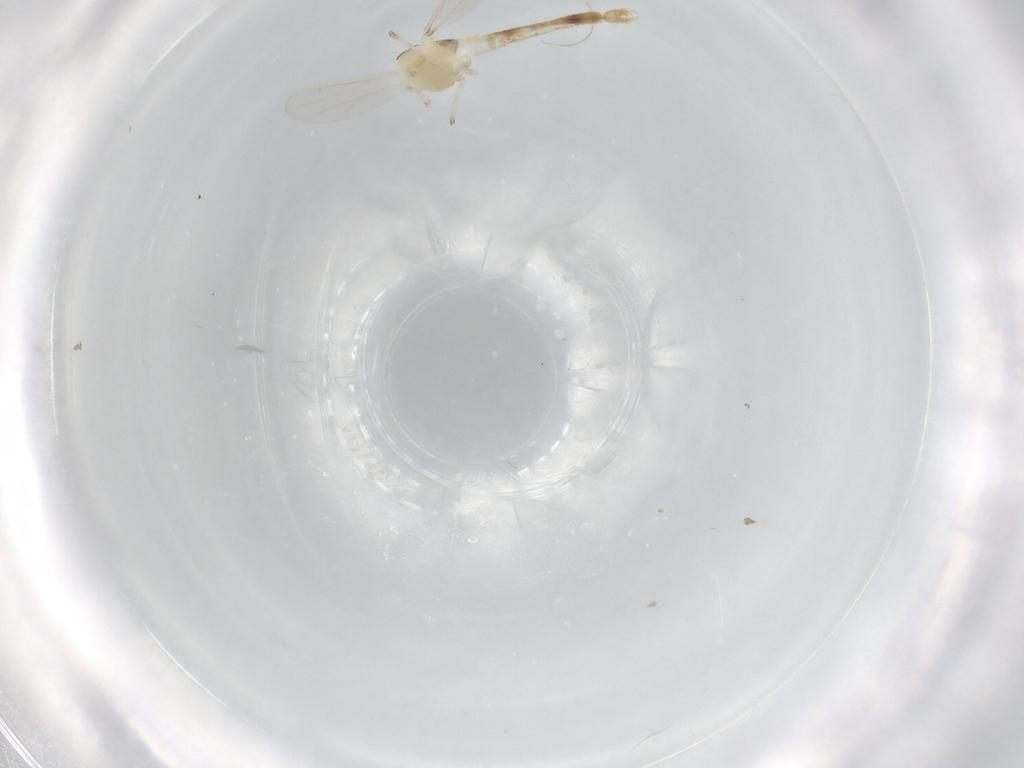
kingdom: Animalia
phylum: Arthropoda
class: Insecta
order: Diptera
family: Chironomidae
